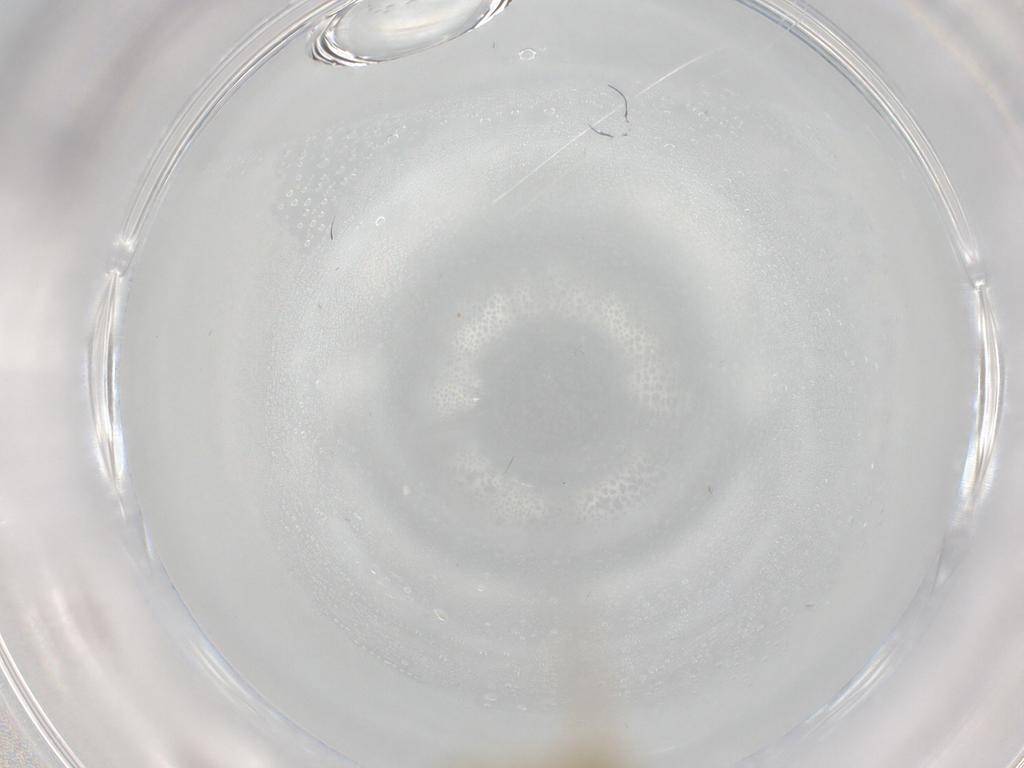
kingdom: Animalia
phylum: Arthropoda
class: Insecta
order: Diptera
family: Chironomidae
